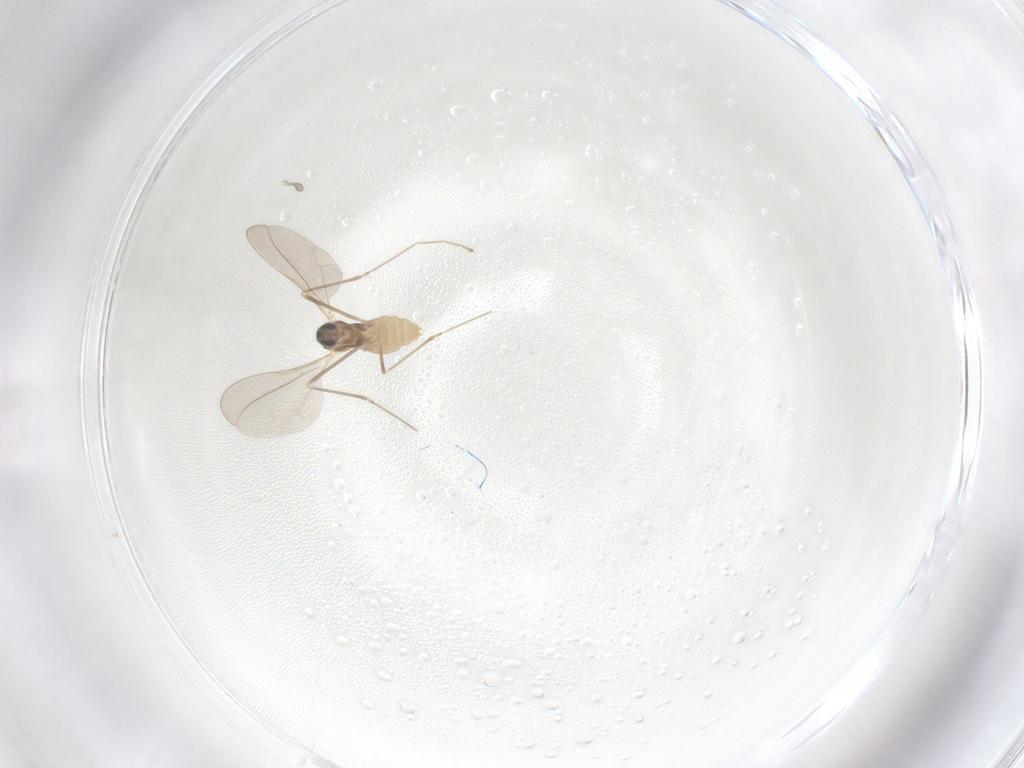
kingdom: Animalia
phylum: Arthropoda
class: Insecta
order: Diptera
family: Cecidomyiidae
